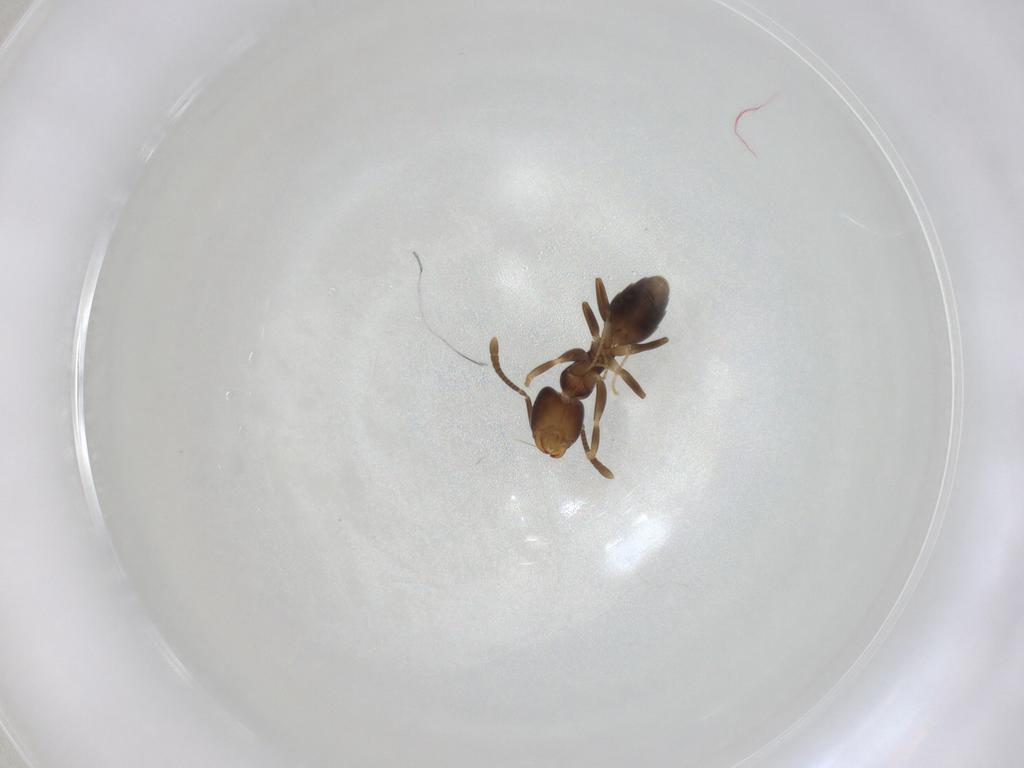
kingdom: Animalia
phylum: Arthropoda
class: Insecta
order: Hymenoptera
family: Formicidae
